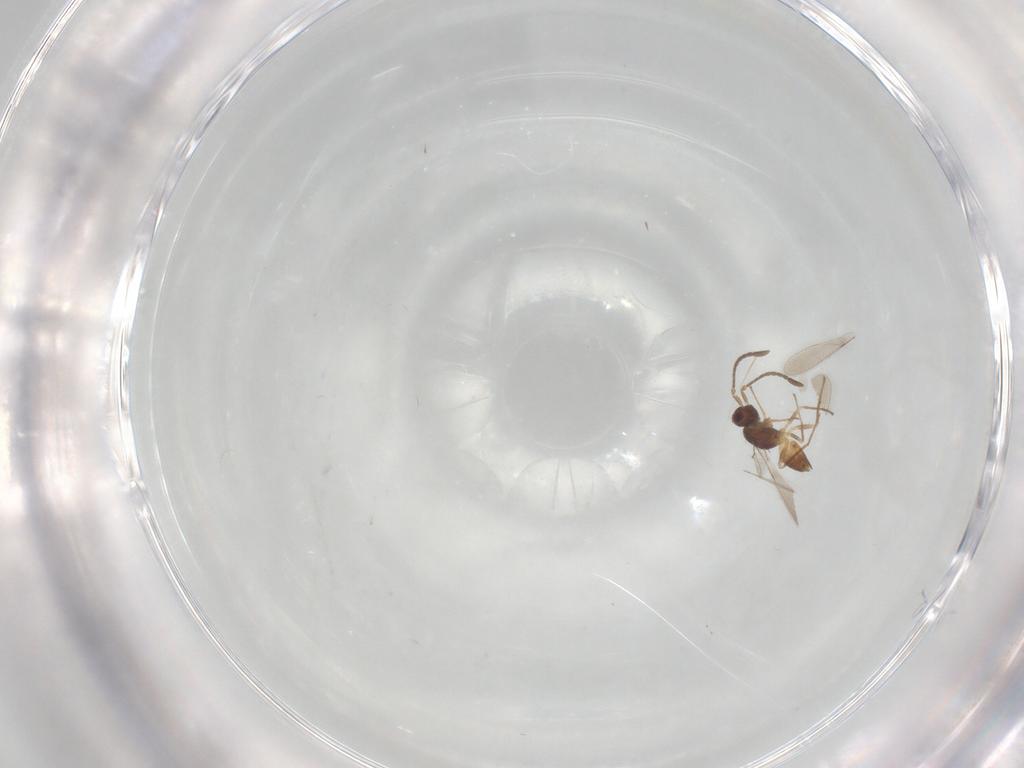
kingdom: Animalia
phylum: Arthropoda
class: Insecta
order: Hymenoptera
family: Mymaridae
